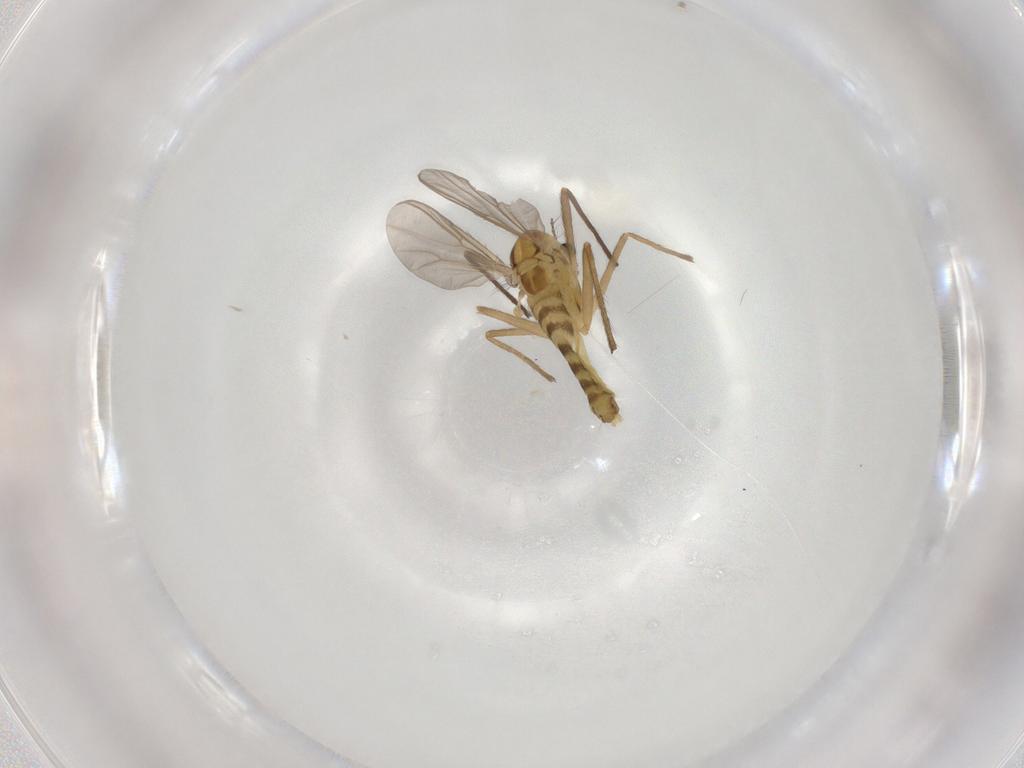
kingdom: Animalia
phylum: Arthropoda
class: Insecta
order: Diptera
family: Chironomidae
